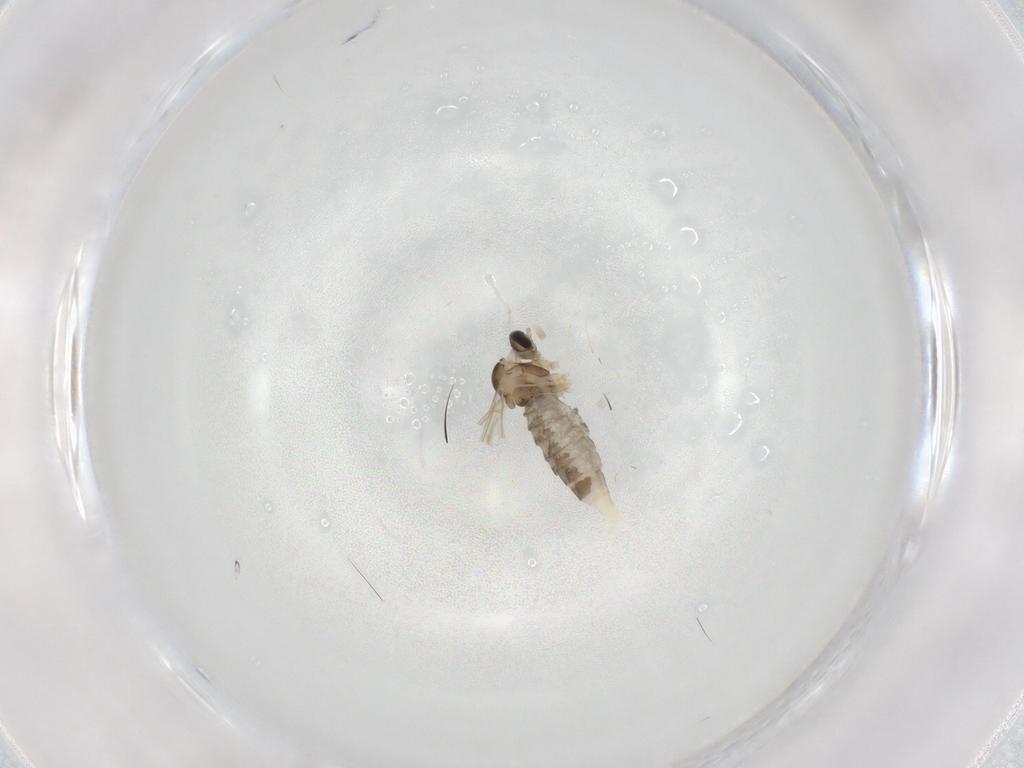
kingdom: Animalia
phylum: Arthropoda
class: Insecta
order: Diptera
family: Cecidomyiidae
